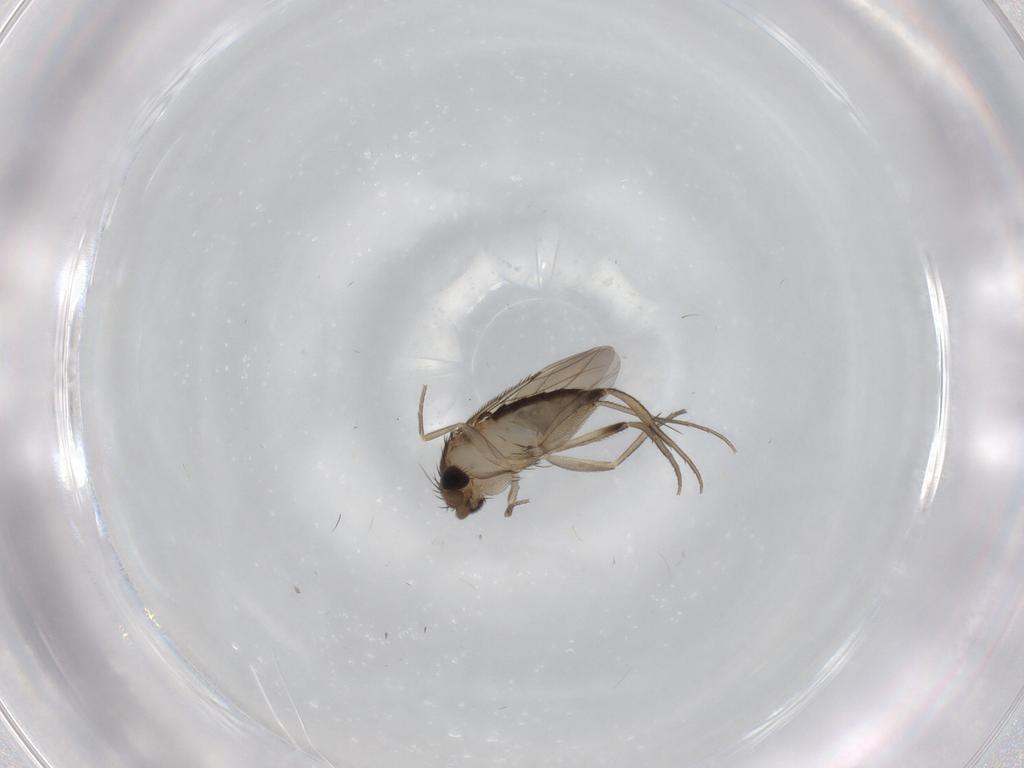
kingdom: Animalia
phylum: Arthropoda
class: Insecta
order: Diptera
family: Phoridae
